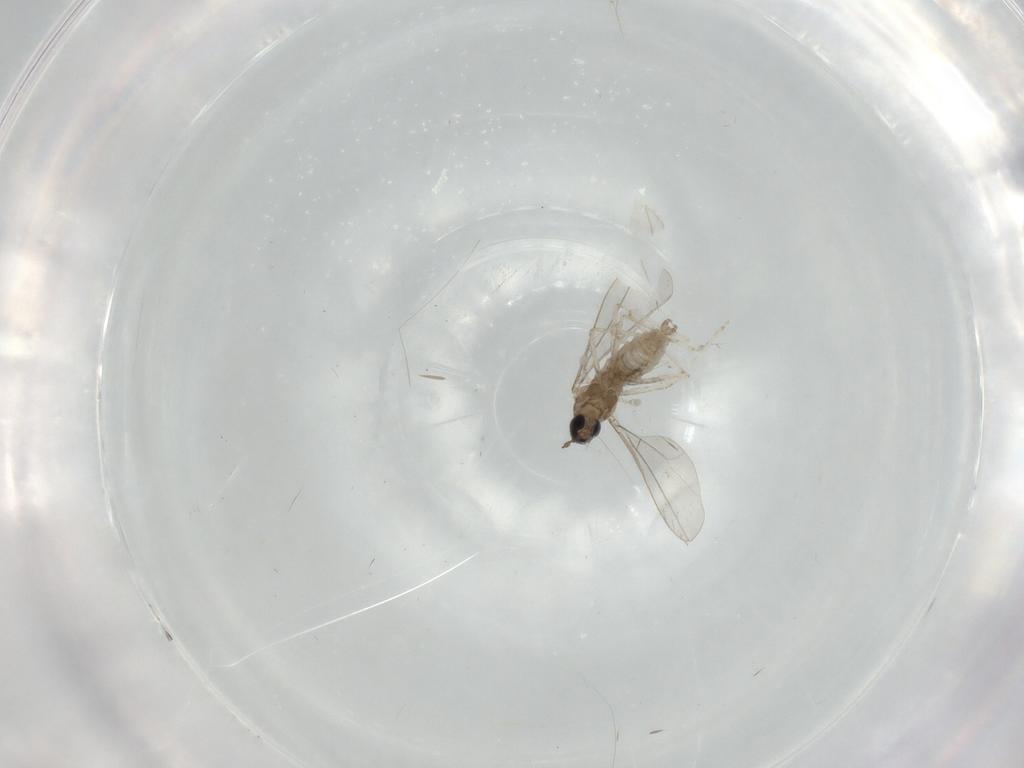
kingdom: Animalia
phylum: Arthropoda
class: Insecta
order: Diptera
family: Cecidomyiidae
